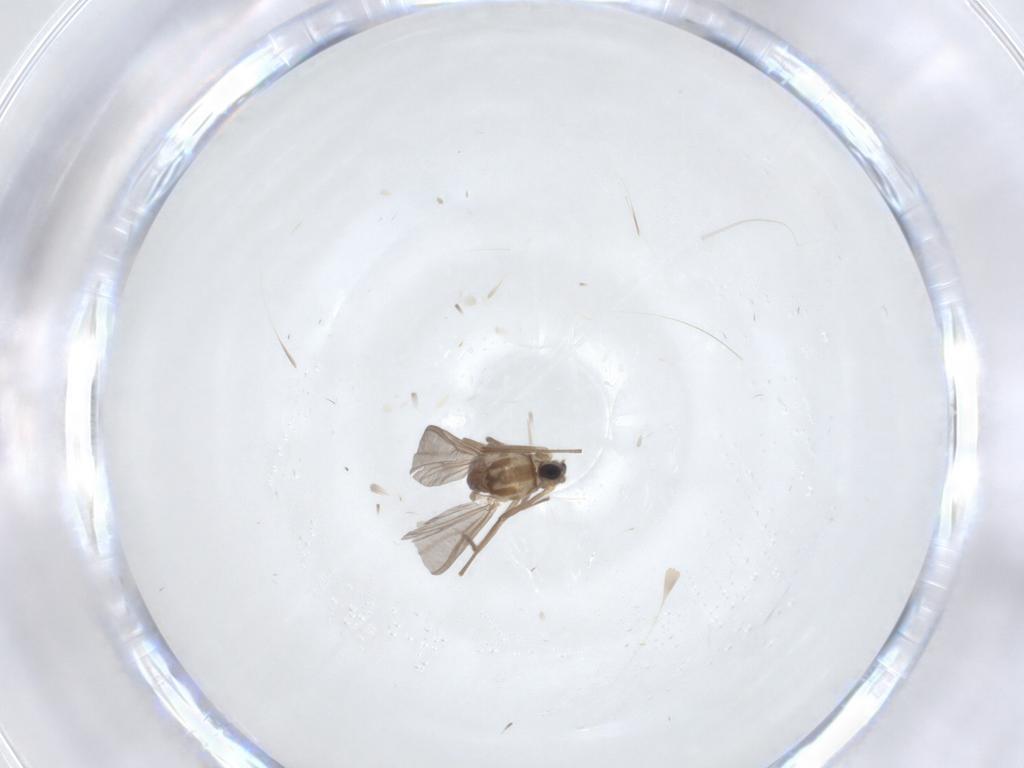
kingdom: Animalia
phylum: Arthropoda
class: Insecta
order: Diptera
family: Chironomidae
